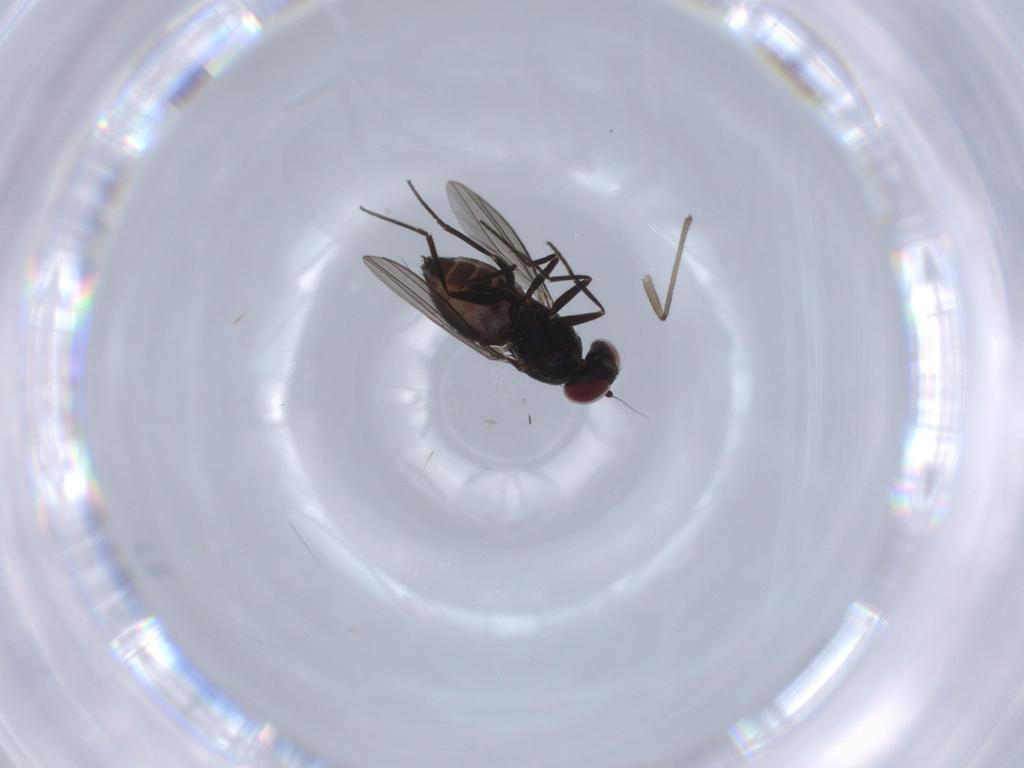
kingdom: Animalia
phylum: Arthropoda
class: Insecta
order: Diptera
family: Dolichopodidae
